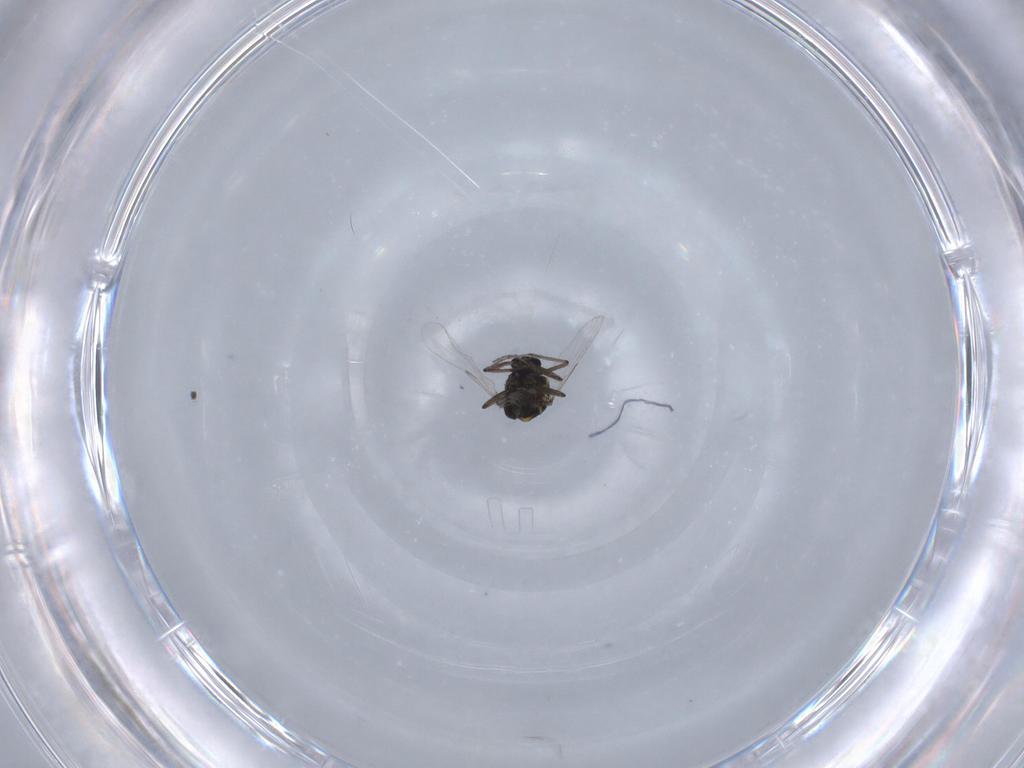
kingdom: Animalia
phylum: Arthropoda
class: Insecta
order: Diptera
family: Ceratopogonidae
